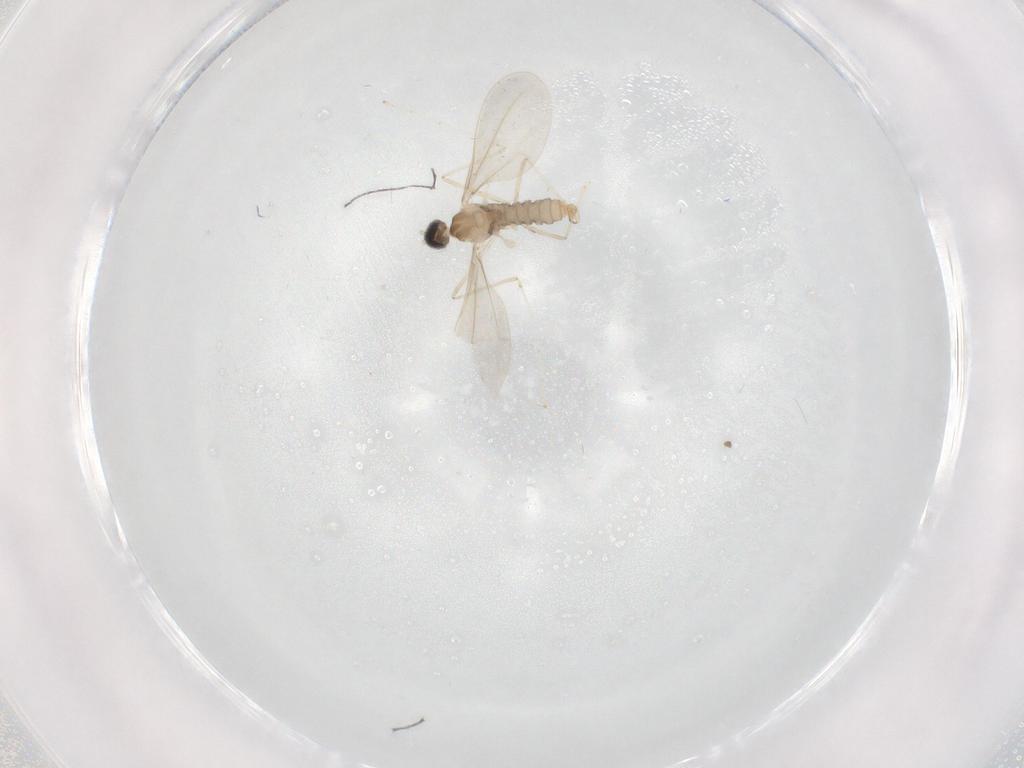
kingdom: Animalia
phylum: Arthropoda
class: Insecta
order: Diptera
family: Cecidomyiidae
